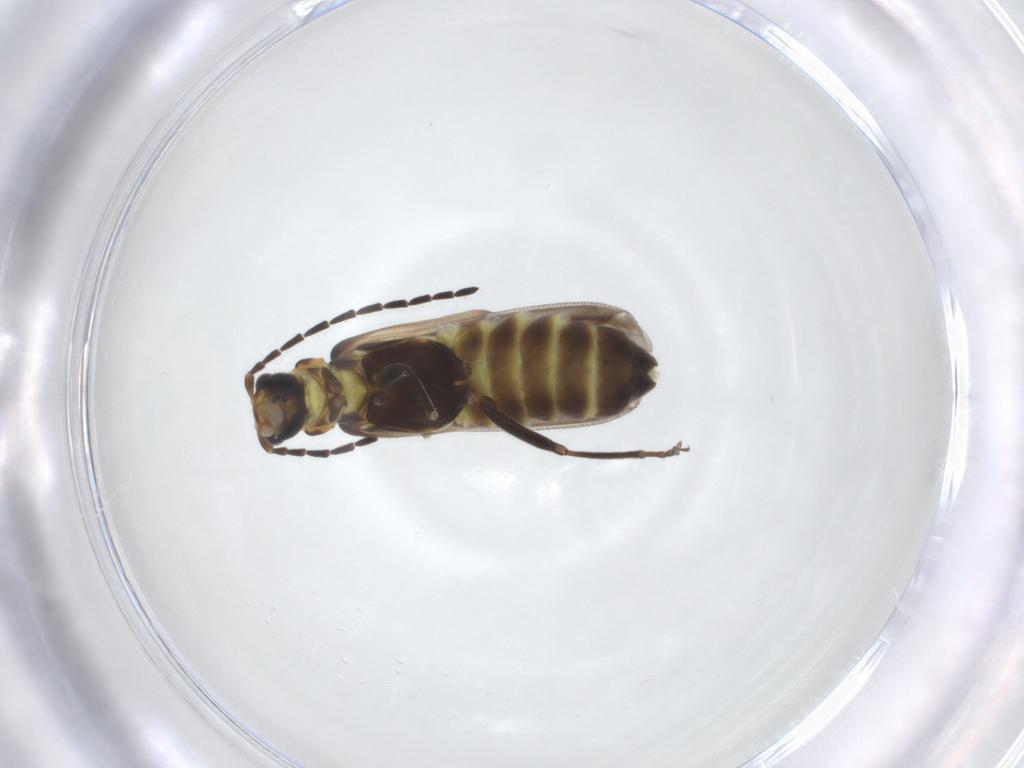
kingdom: Animalia
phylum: Arthropoda
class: Insecta
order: Coleoptera
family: Cantharidae
